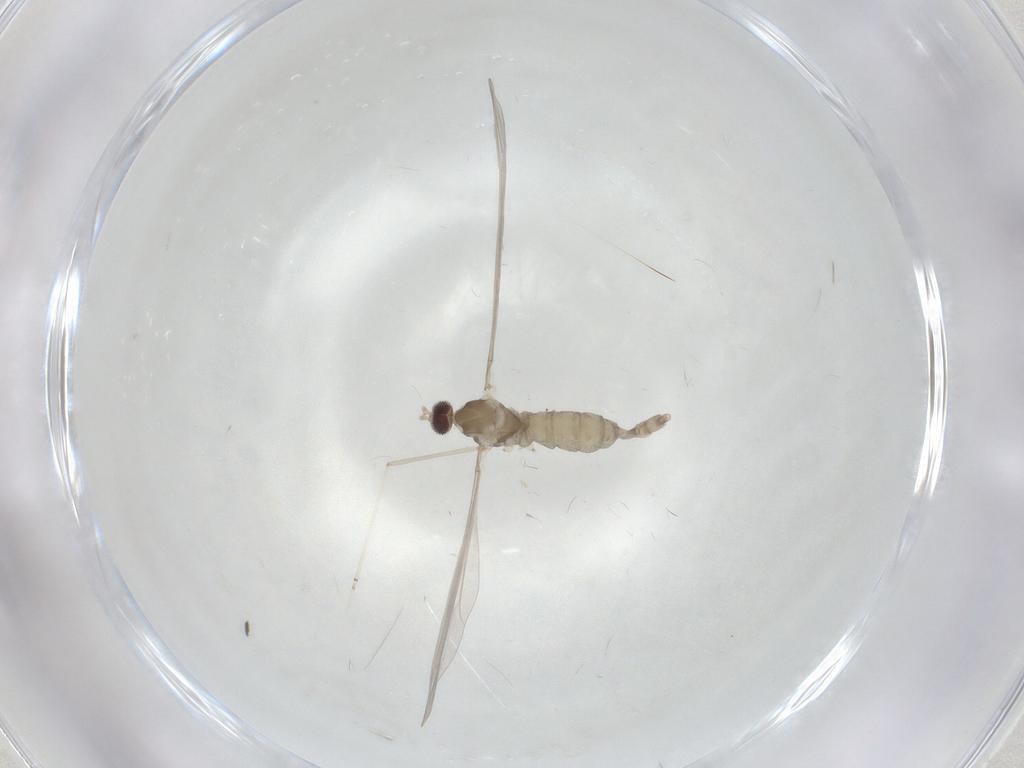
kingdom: Animalia
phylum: Arthropoda
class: Insecta
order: Diptera
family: Cecidomyiidae
